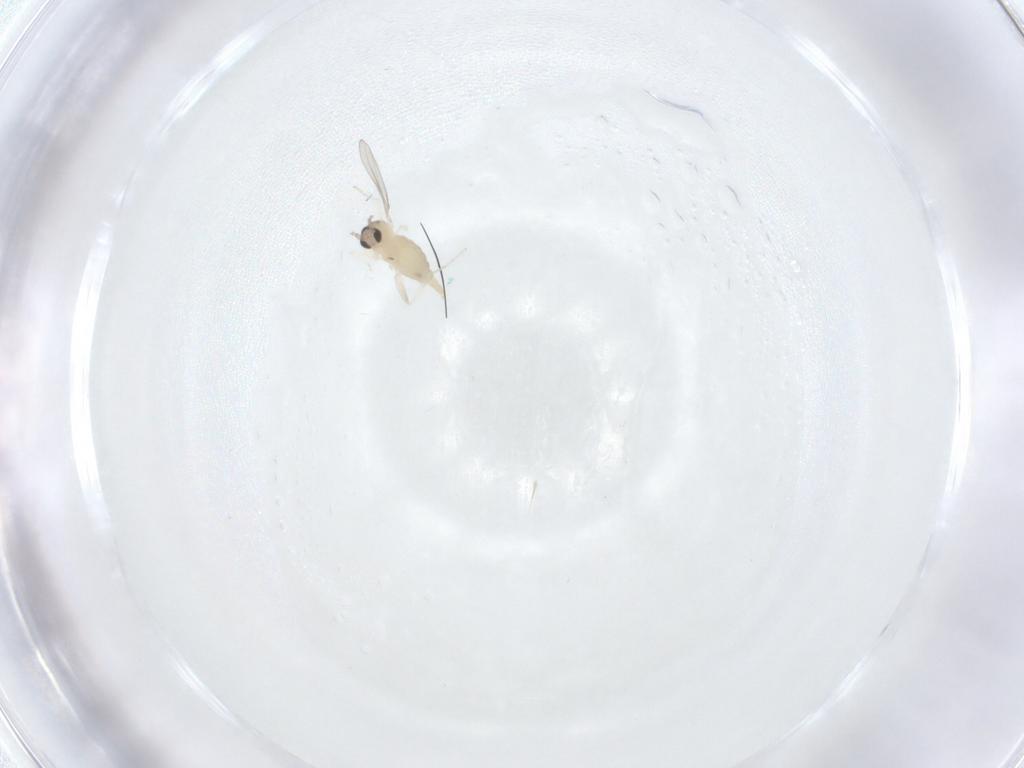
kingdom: Animalia
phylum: Arthropoda
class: Insecta
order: Diptera
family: Cecidomyiidae
